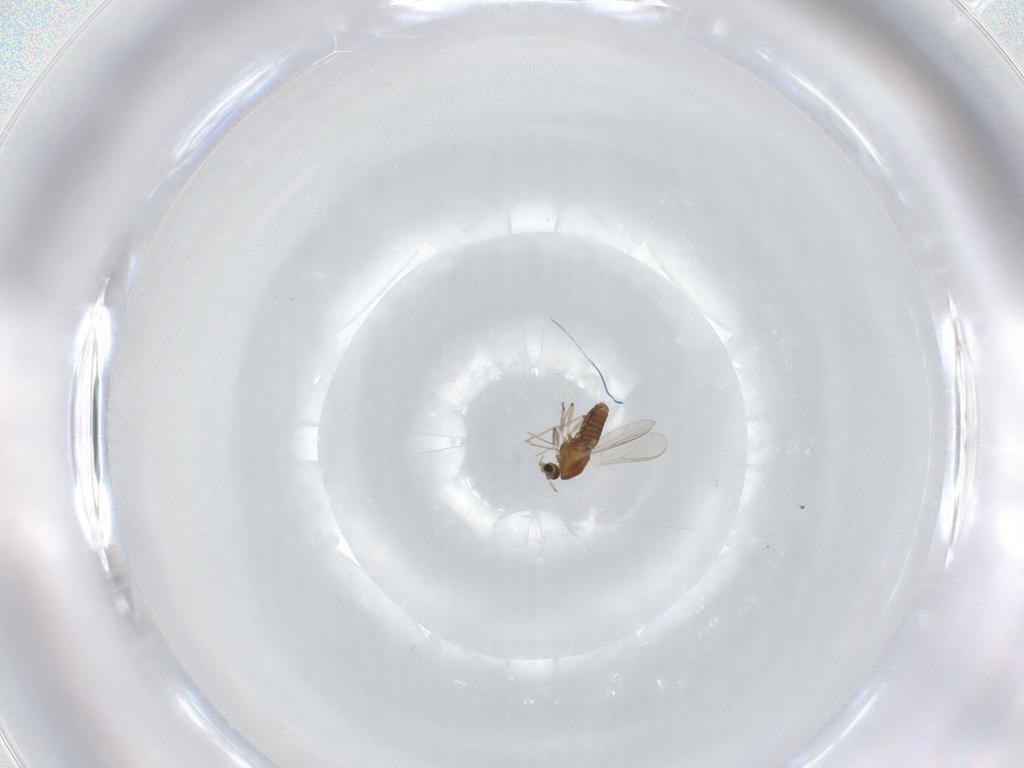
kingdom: Animalia
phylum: Arthropoda
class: Insecta
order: Diptera
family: Chironomidae
